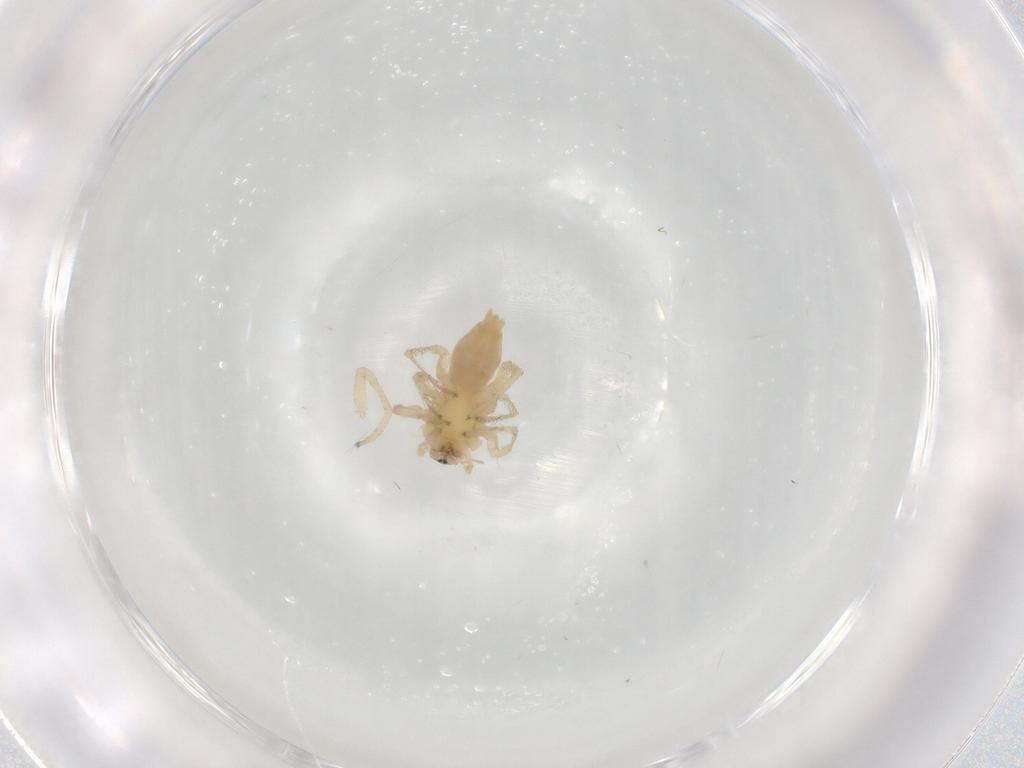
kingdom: Animalia
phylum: Arthropoda
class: Arachnida
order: Araneae
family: Anyphaenidae
